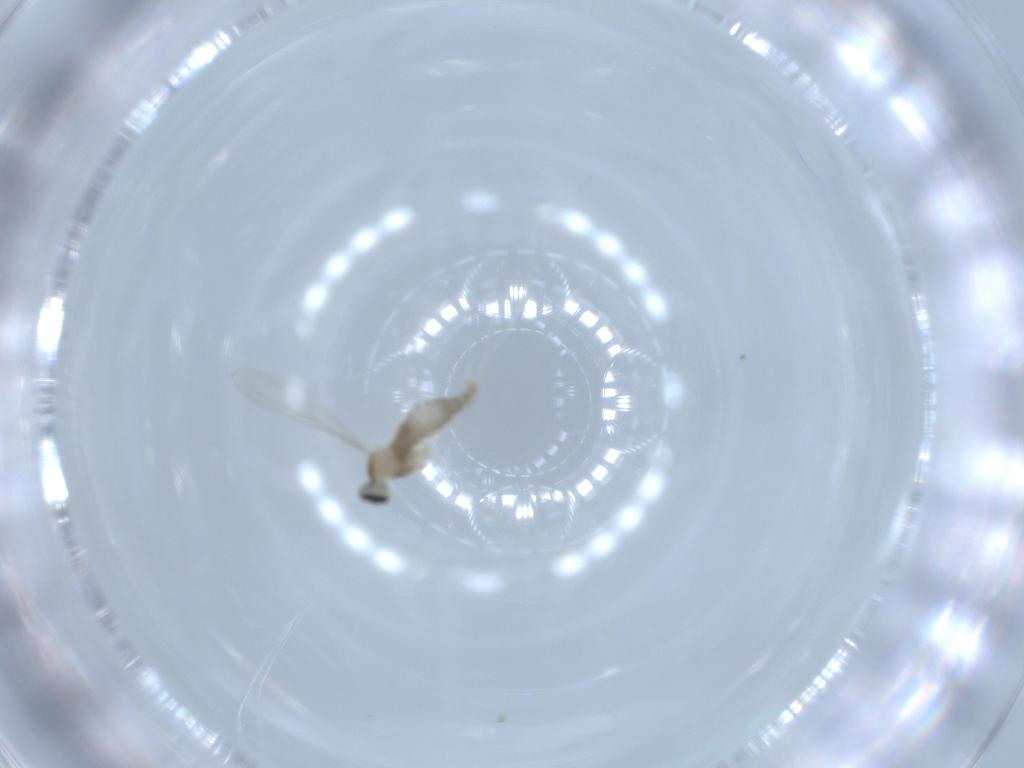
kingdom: Animalia
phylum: Arthropoda
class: Insecta
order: Diptera
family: Cecidomyiidae
